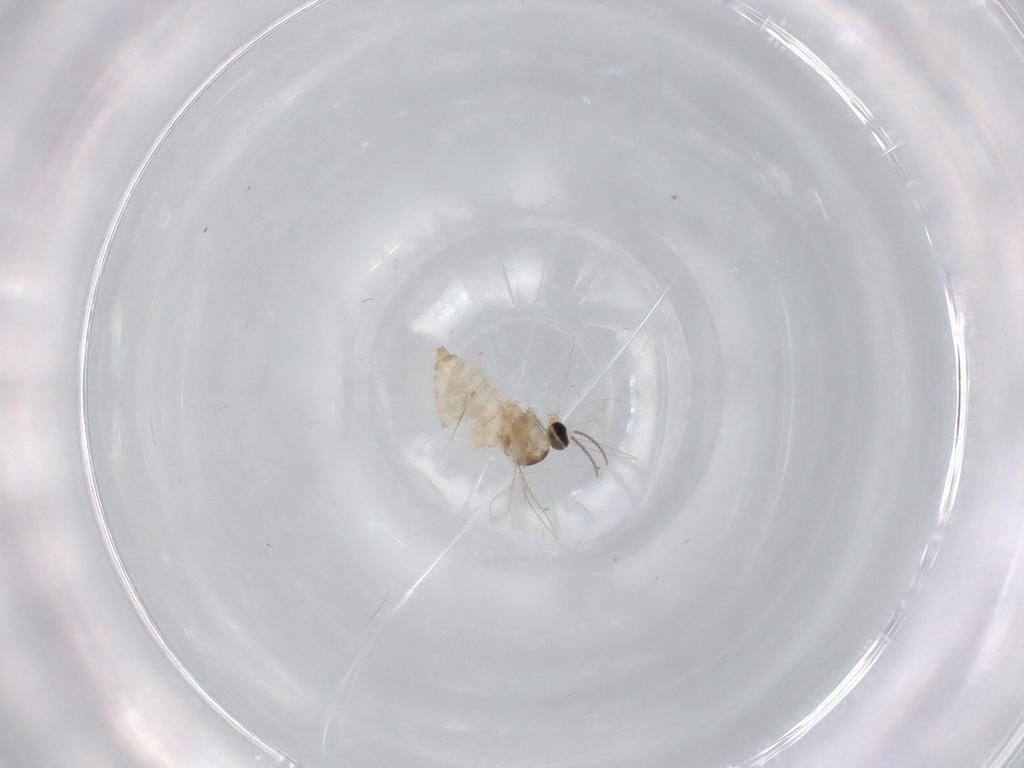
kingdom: Animalia
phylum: Arthropoda
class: Insecta
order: Diptera
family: Cecidomyiidae
